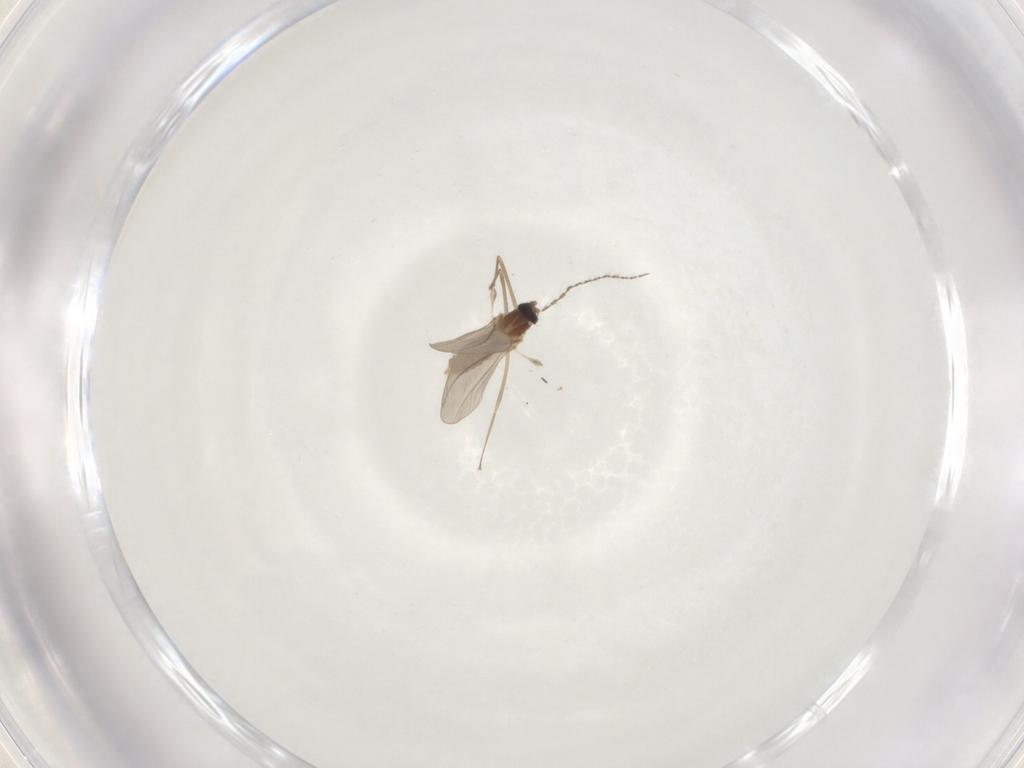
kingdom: Animalia
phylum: Arthropoda
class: Insecta
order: Diptera
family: Cecidomyiidae
